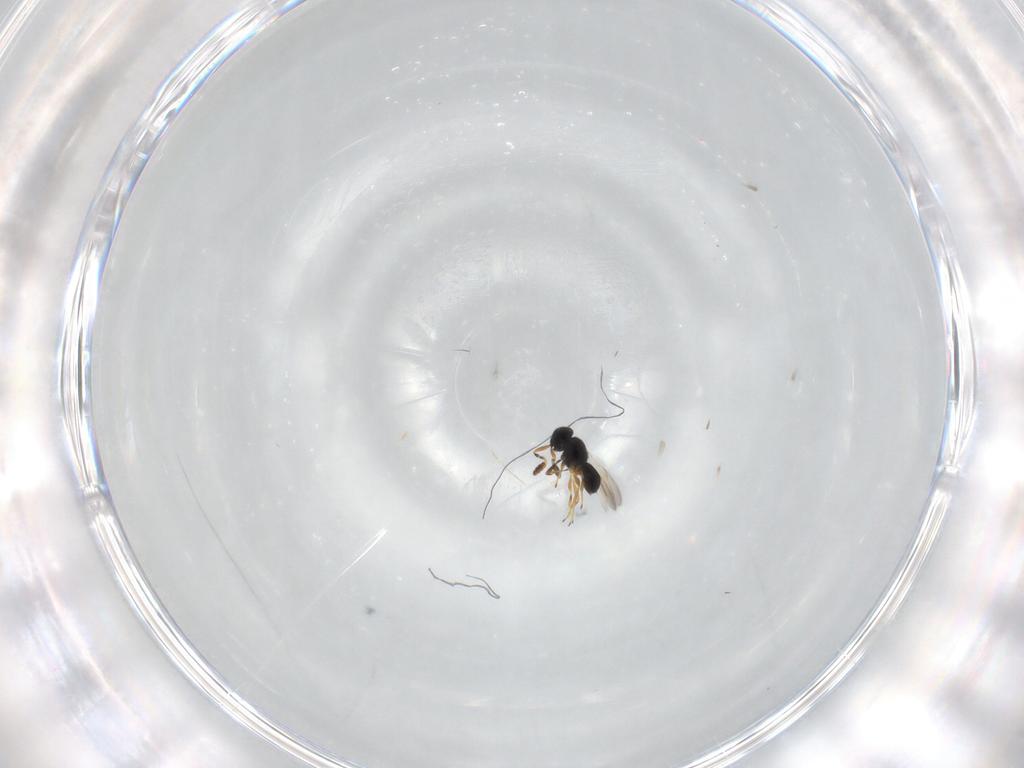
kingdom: Animalia
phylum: Arthropoda
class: Insecta
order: Hymenoptera
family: Scelionidae
